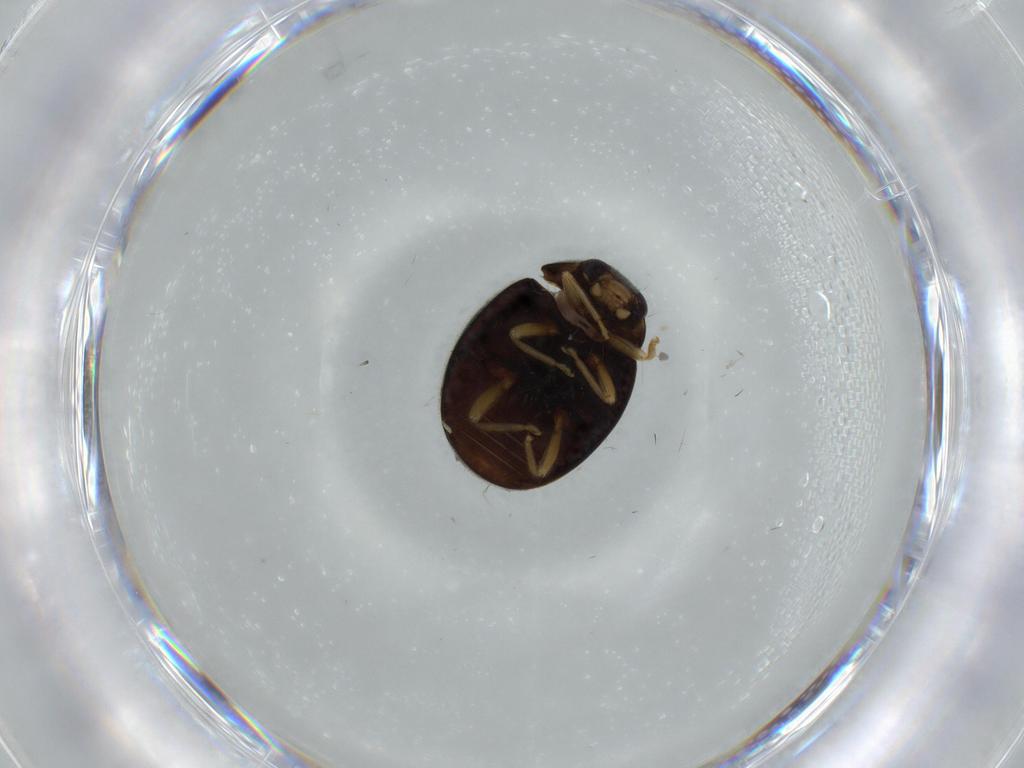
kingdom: Animalia
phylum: Arthropoda
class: Insecta
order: Coleoptera
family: Coccinellidae
